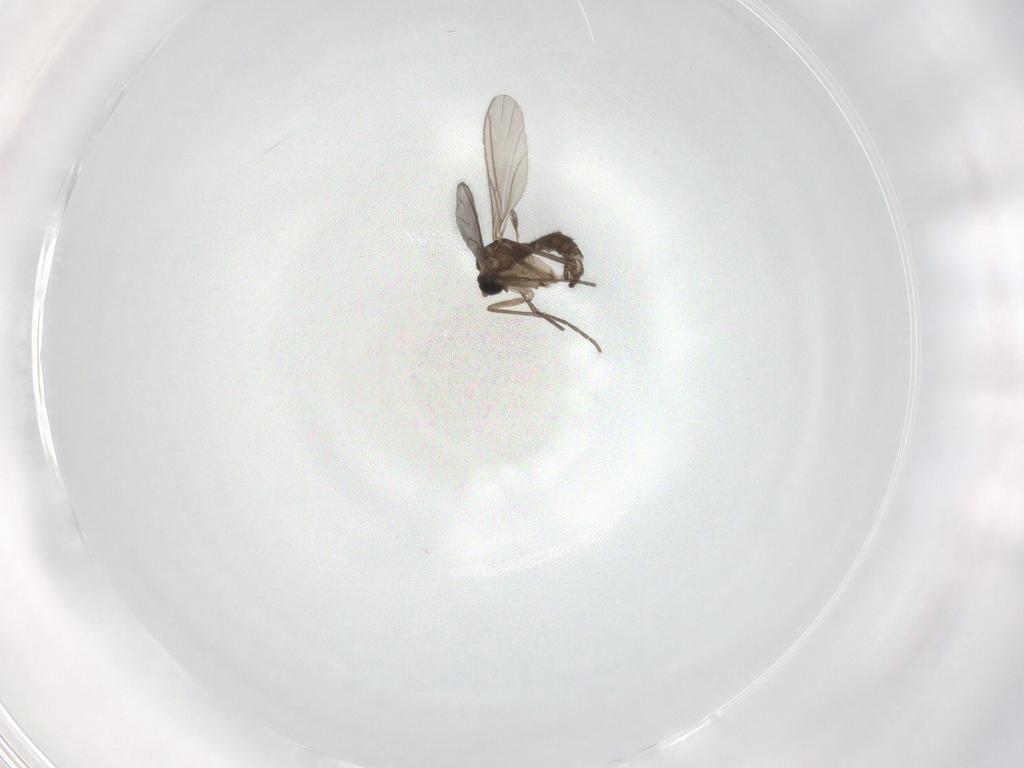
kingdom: Animalia
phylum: Arthropoda
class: Insecta
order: Diptera
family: Sciaridae
